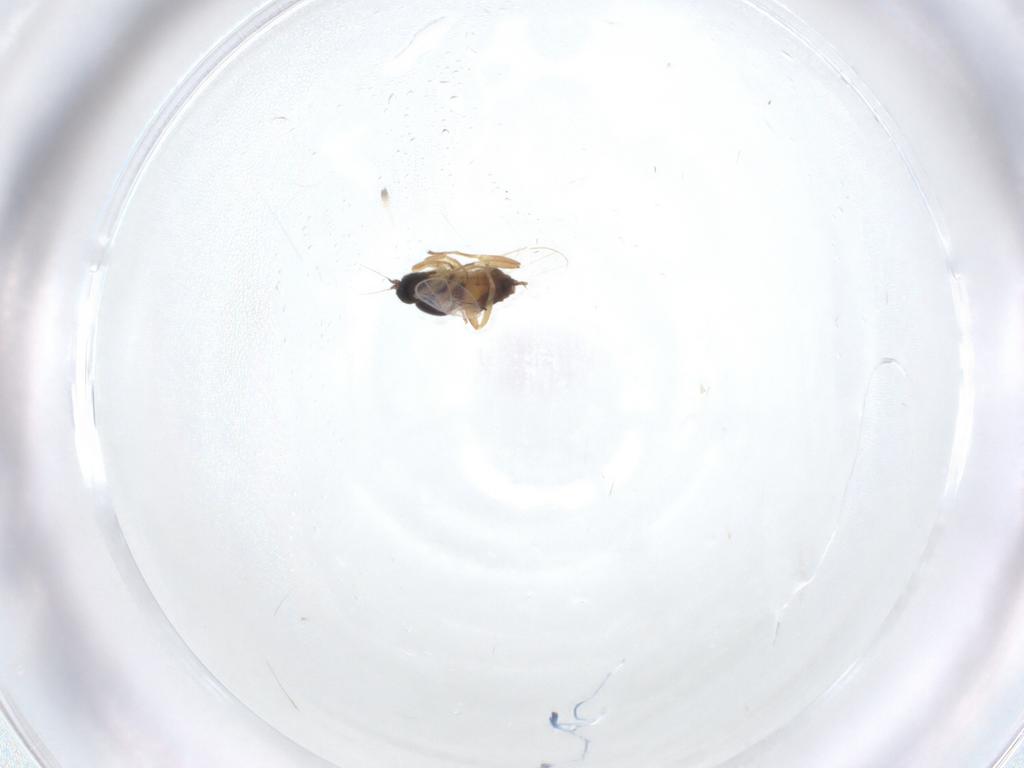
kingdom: Animalia
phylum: Arthropoda
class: Insecta
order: Diptera
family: Hybotidae
